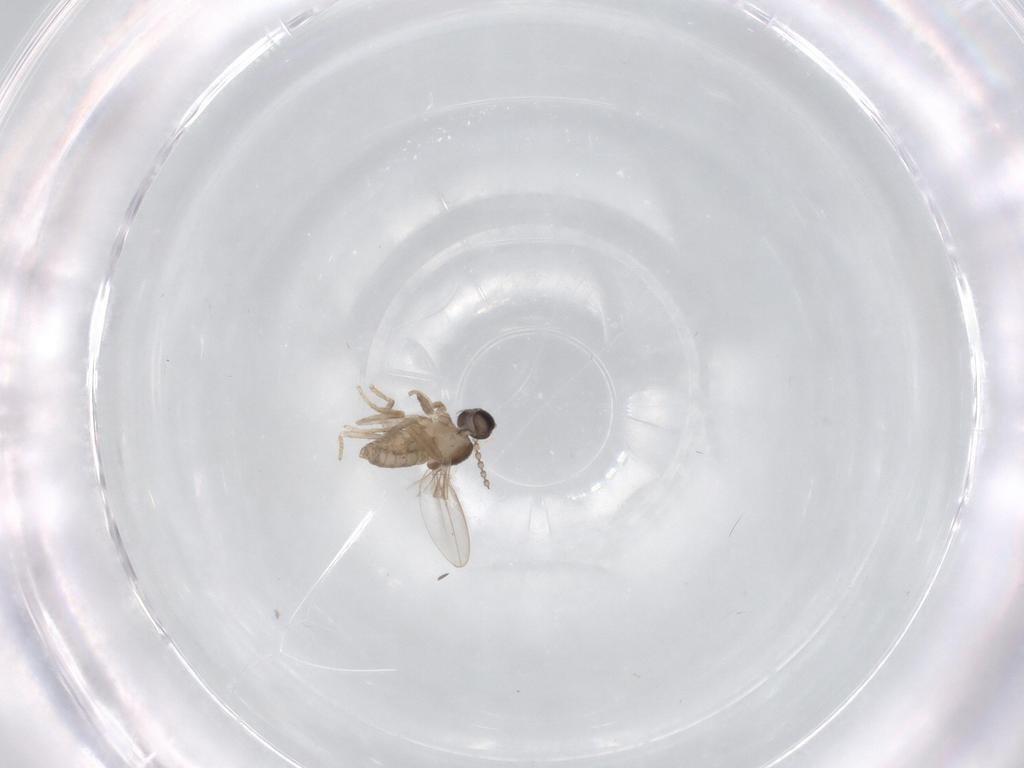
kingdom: Animalia
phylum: Arthropoda
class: Insecta
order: Diptera
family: Cecidomyiidae
